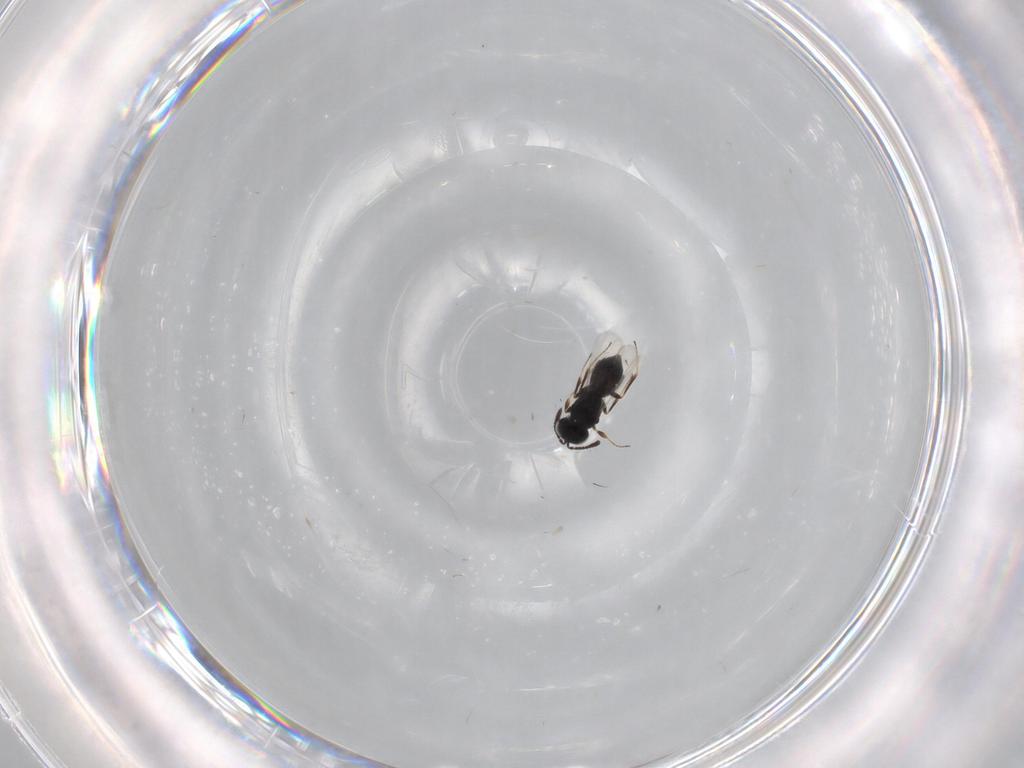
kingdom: Animalia
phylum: Arthropoda
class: Insecta
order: Hymenoptera
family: Scelionidae
